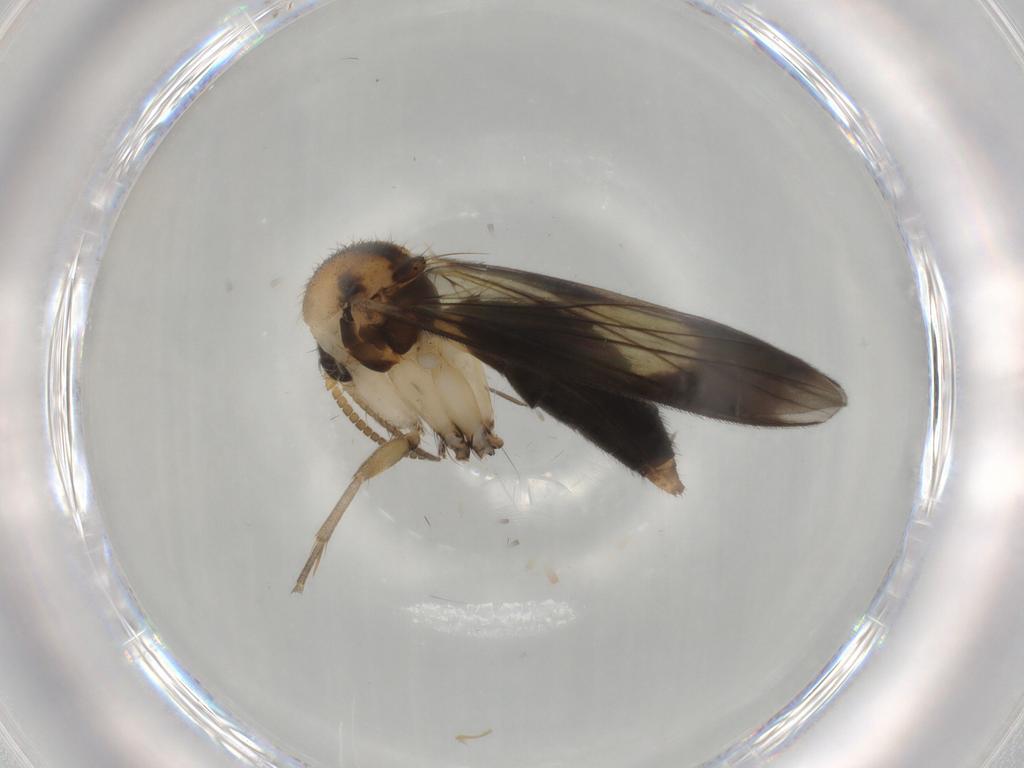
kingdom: Animalia
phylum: Arthropoda
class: Insecta
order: Diptera
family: Mycetophilidae
